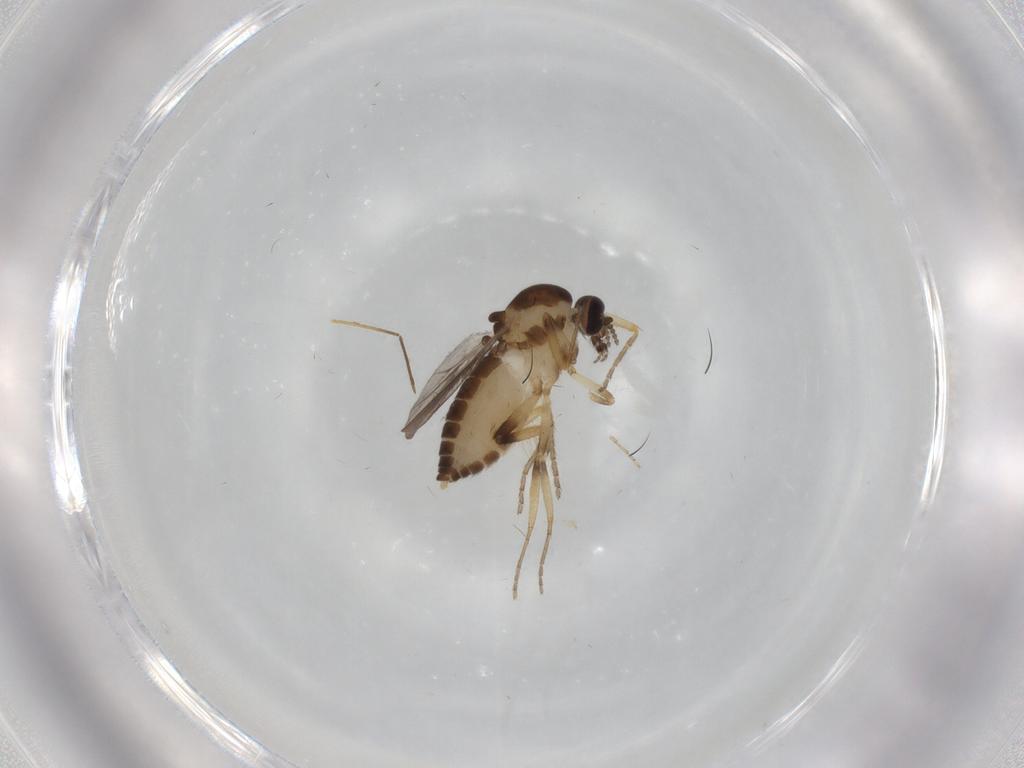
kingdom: Animalia
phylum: Arthropoda
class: Insecta
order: Diptera
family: Ceratopogonidae
